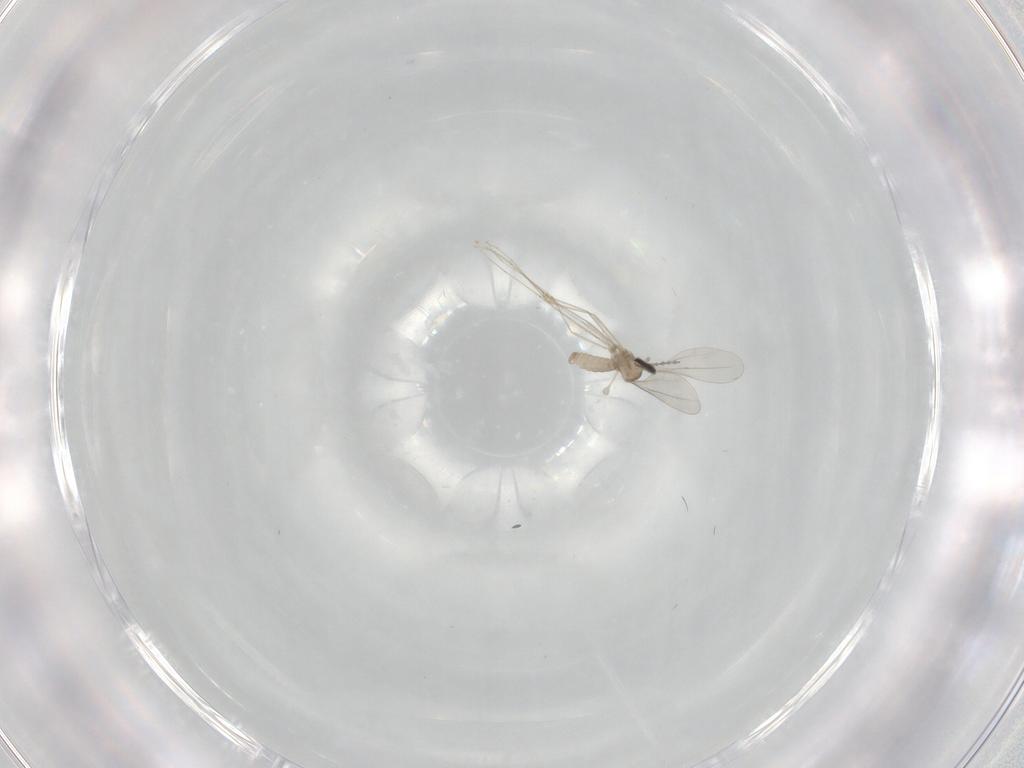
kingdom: Animalia
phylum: Arthropoda
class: Insecta
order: Diptera
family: Cecidomyiidae
